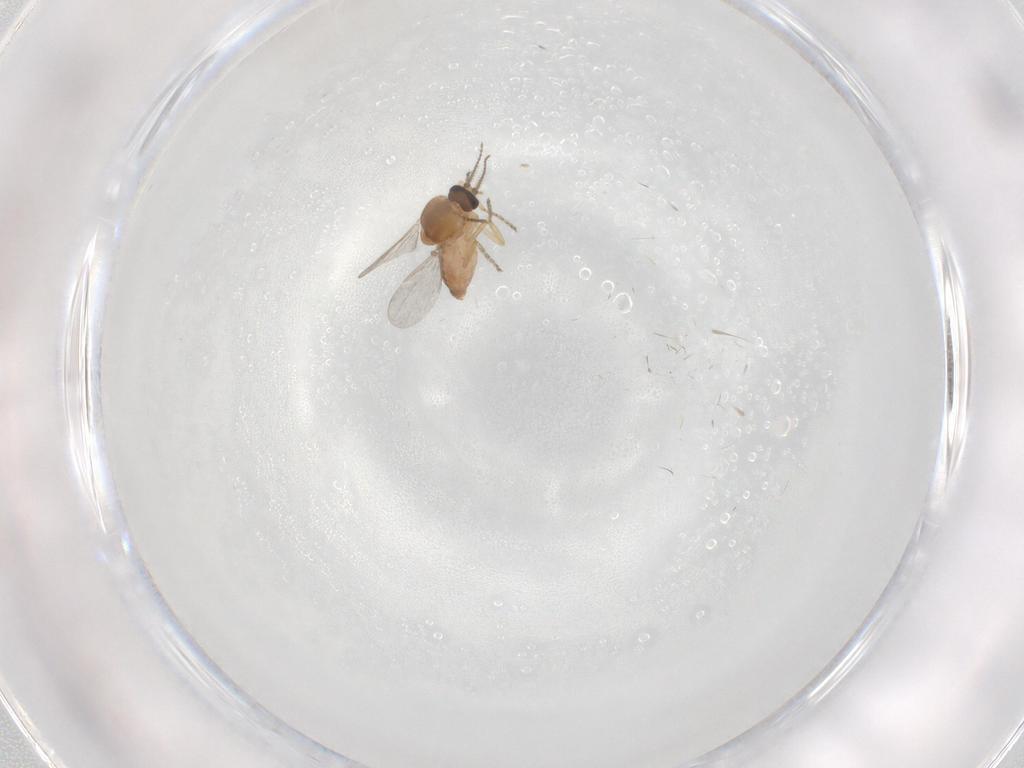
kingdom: Animalia
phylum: Arthropoda
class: Insecta
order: Diptera
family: Ceratopogonidae
